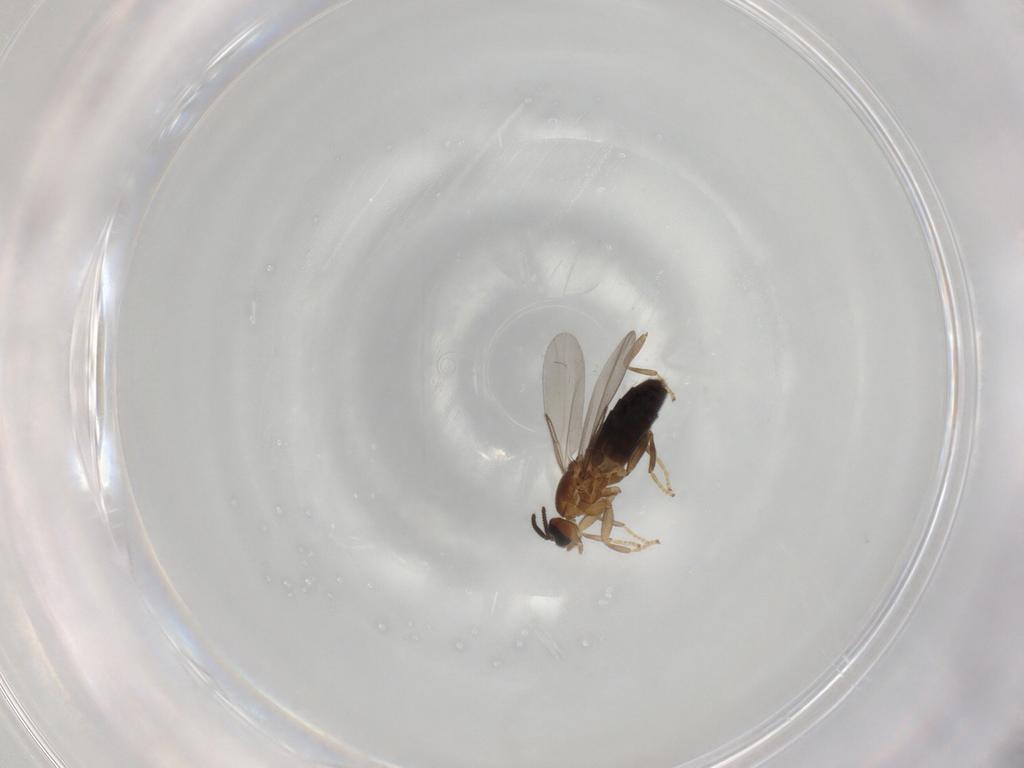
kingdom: Animalia
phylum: Arthropoda
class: Insecta
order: Diptera
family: Scatopsidae
